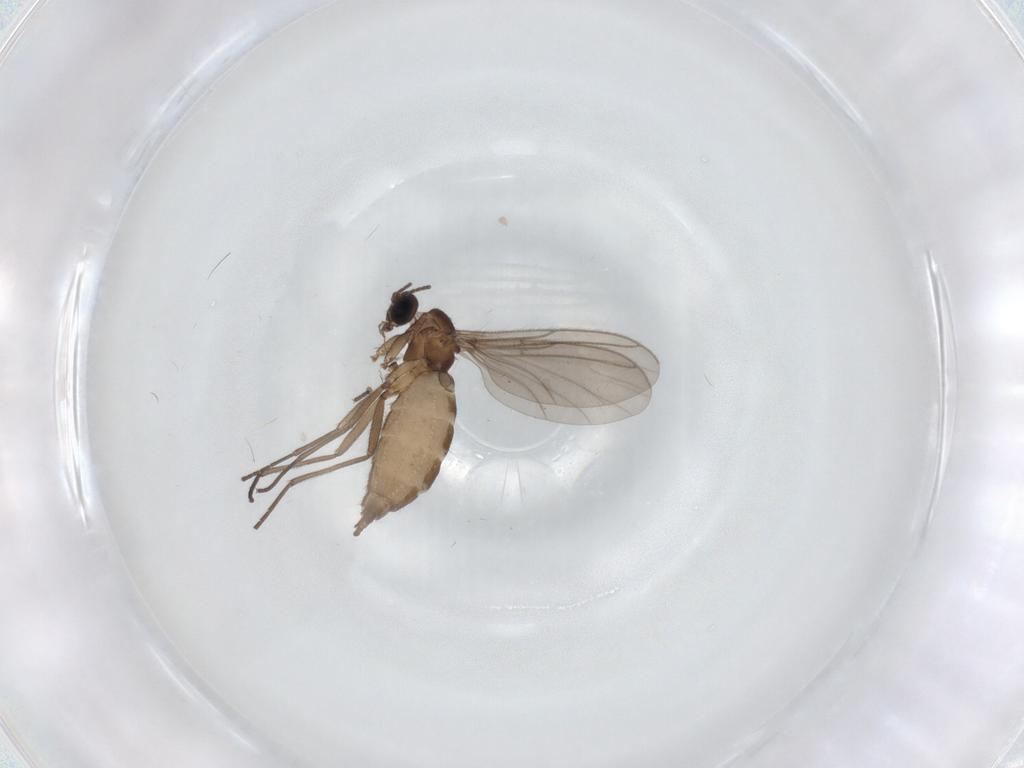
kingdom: Animalia
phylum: Arthropoda
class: Insecta
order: Diptera
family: Sciaridae
